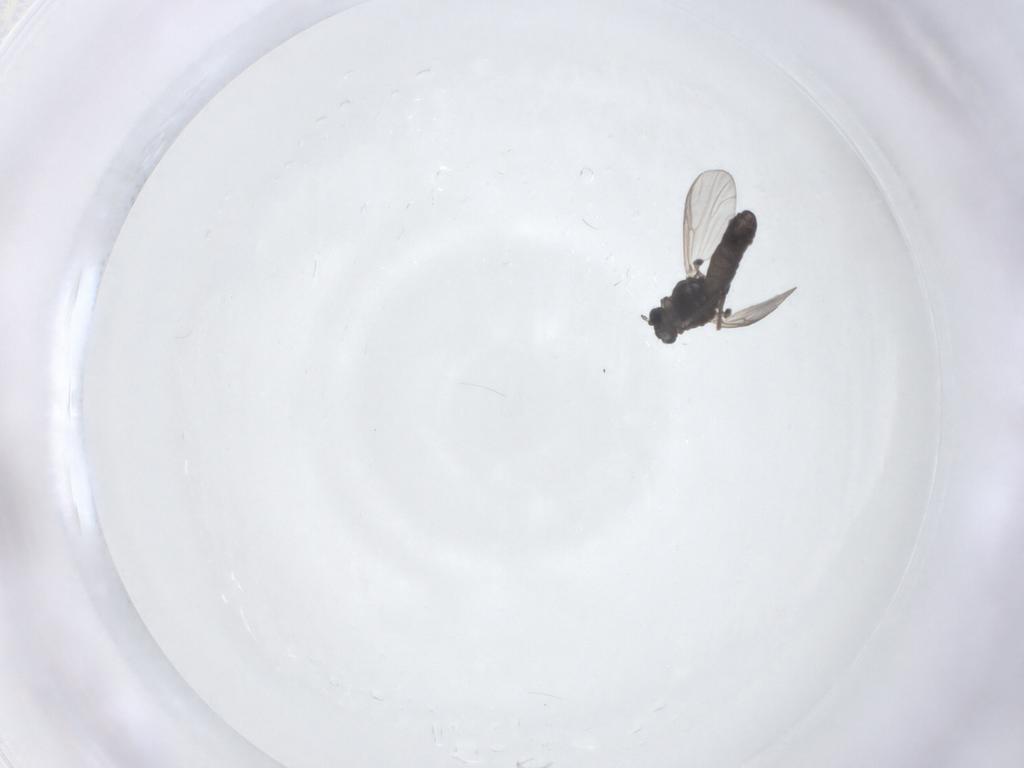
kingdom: Animalia
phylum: Arthropoda
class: Insecta
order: Diptera
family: Chironomidae
